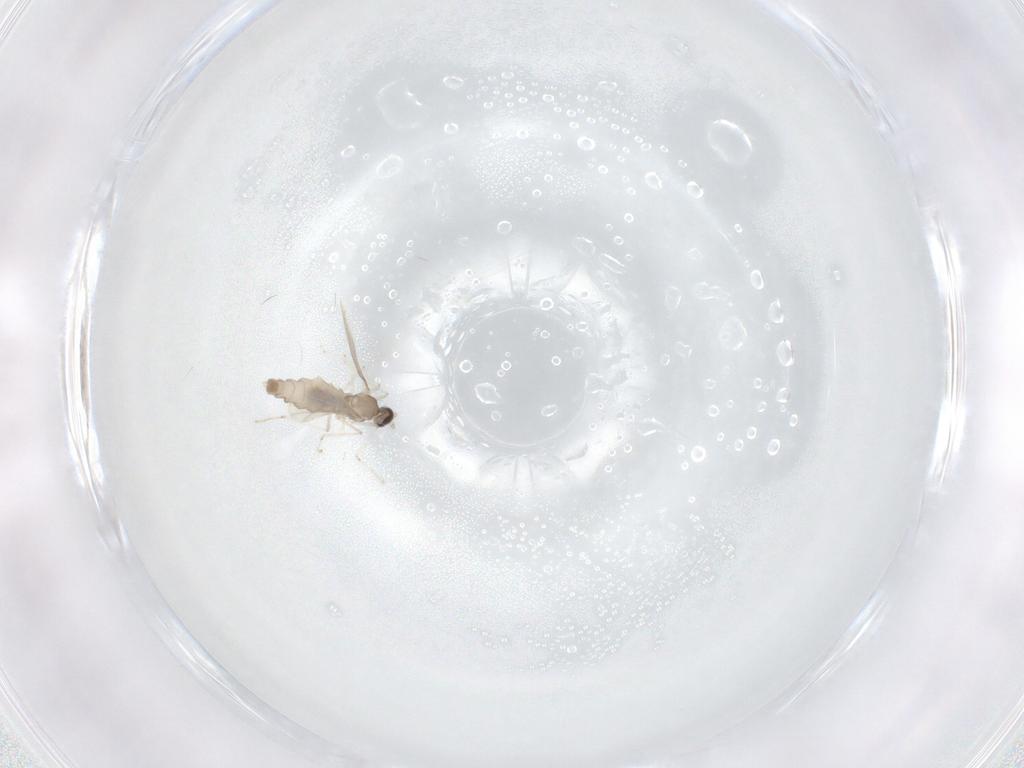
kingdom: Animalia
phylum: Arthropoda
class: Insecta
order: Diptera
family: Cecidomyiidae
